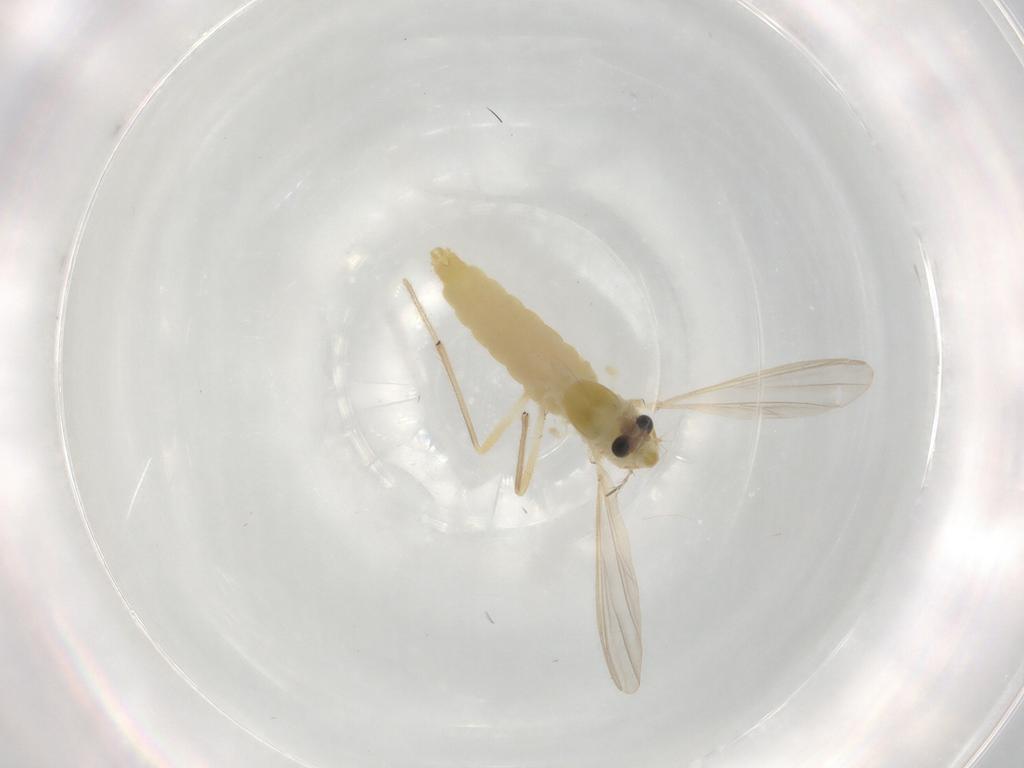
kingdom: Animalia
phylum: Arthropoda
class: Insecta
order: Diptera
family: Chironomidae
